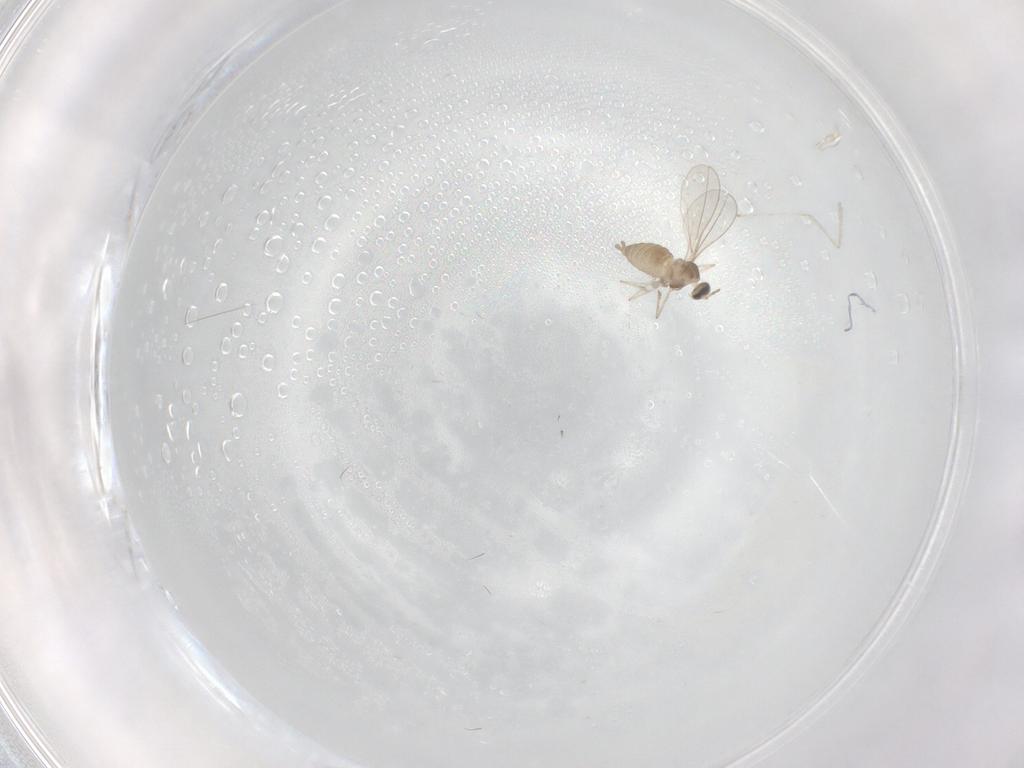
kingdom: Animalia
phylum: Arthropoda
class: Insecta
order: Diptera
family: Cecidomyiidae
